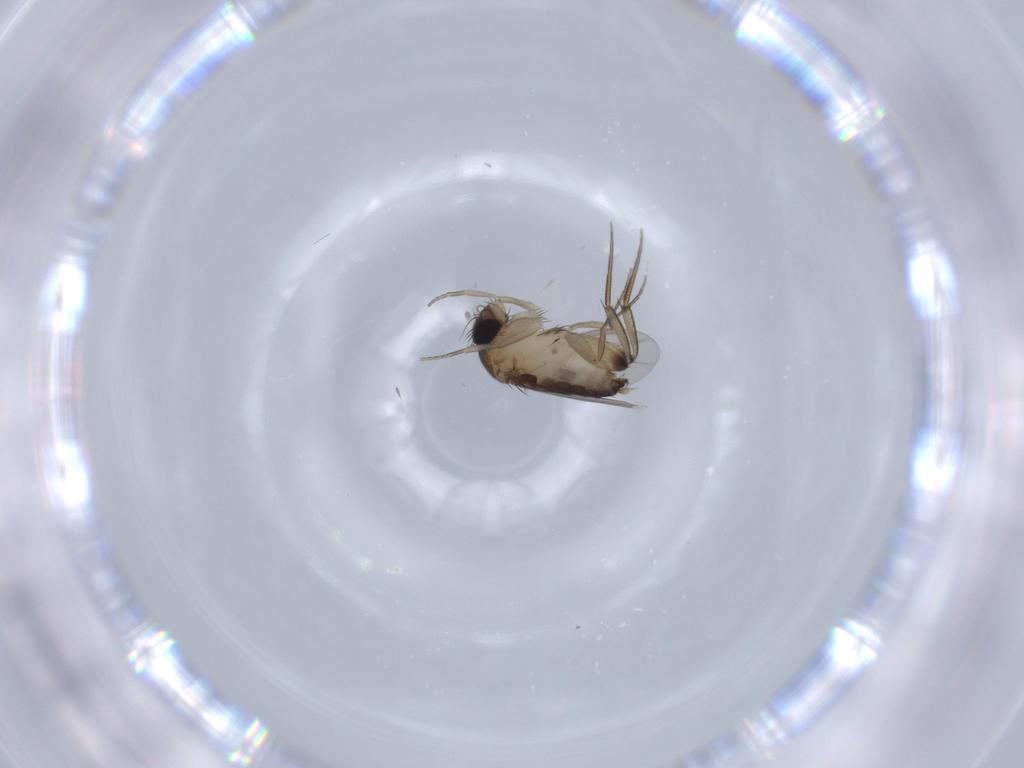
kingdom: Animalia
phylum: Arthropoda
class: Insecta
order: Diptera
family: Phoridae
